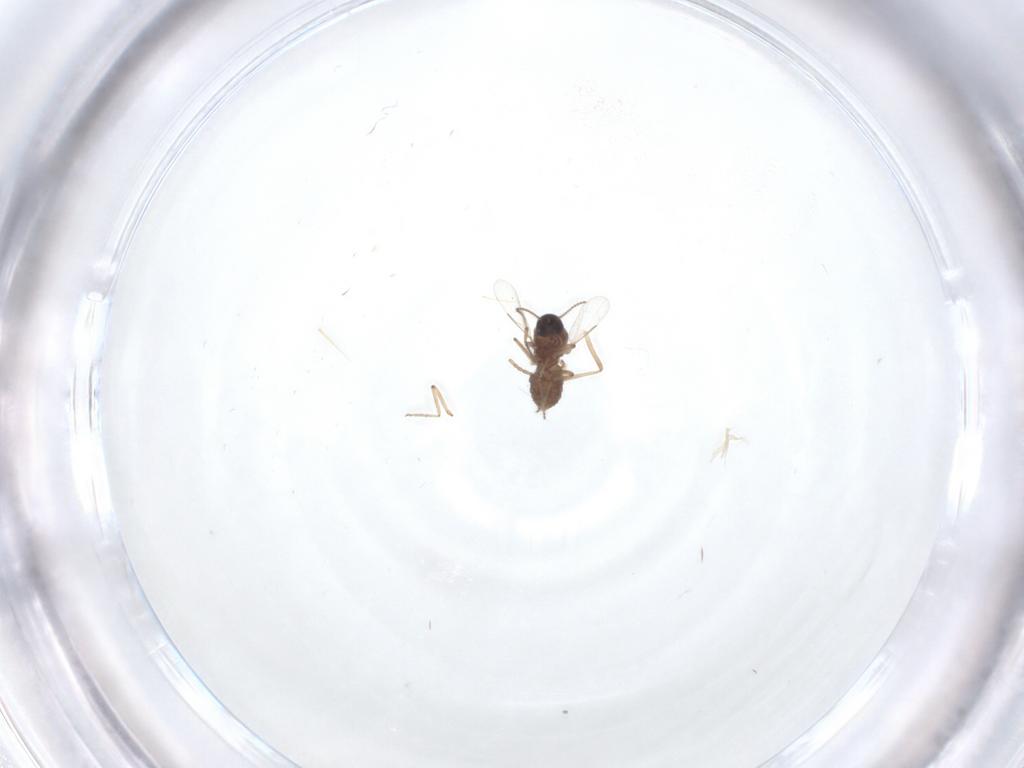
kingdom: Animalia
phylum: Arthropoda
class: Insecta
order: Diptera
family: Ceratopogonidae
